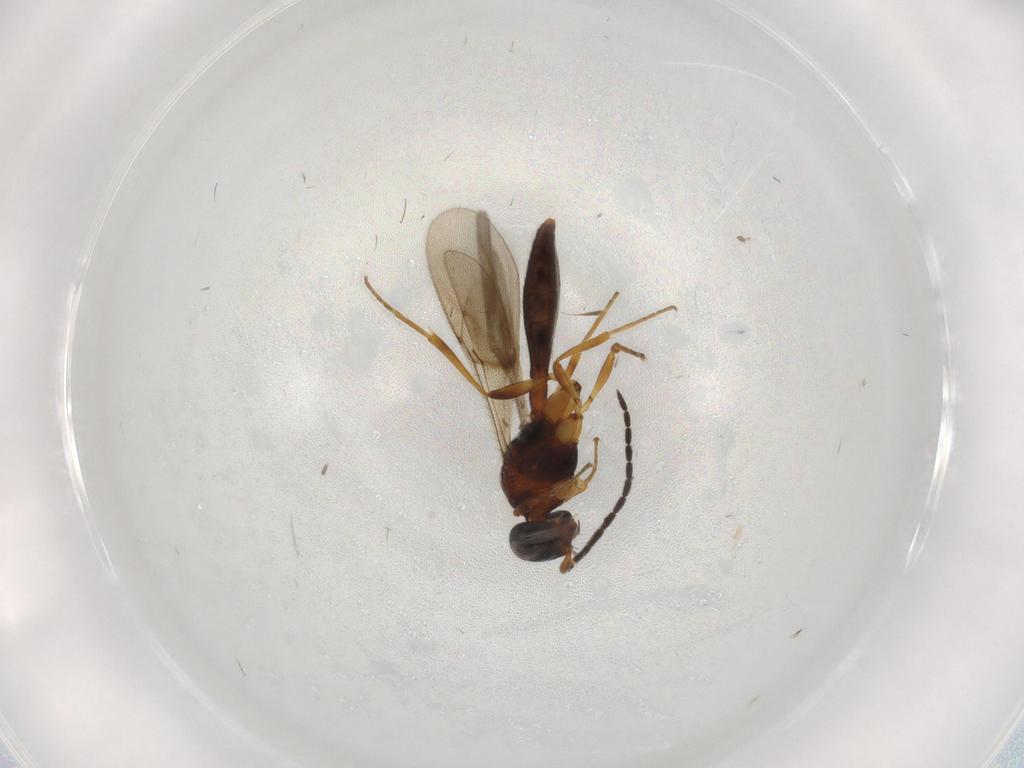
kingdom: Animalia
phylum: Arthropoda
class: Insecta
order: Hymenoptera
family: Scelionidae
